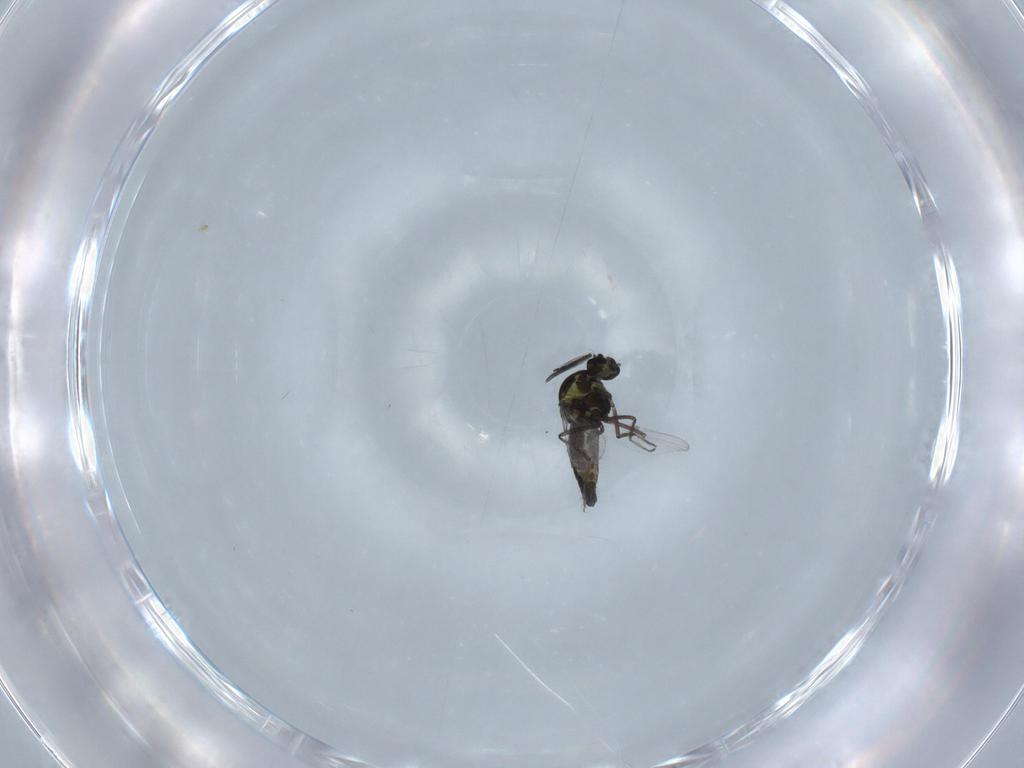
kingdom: Animalia
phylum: Arthropoda
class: Insecta
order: Diptera
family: Ceratopogonidae
